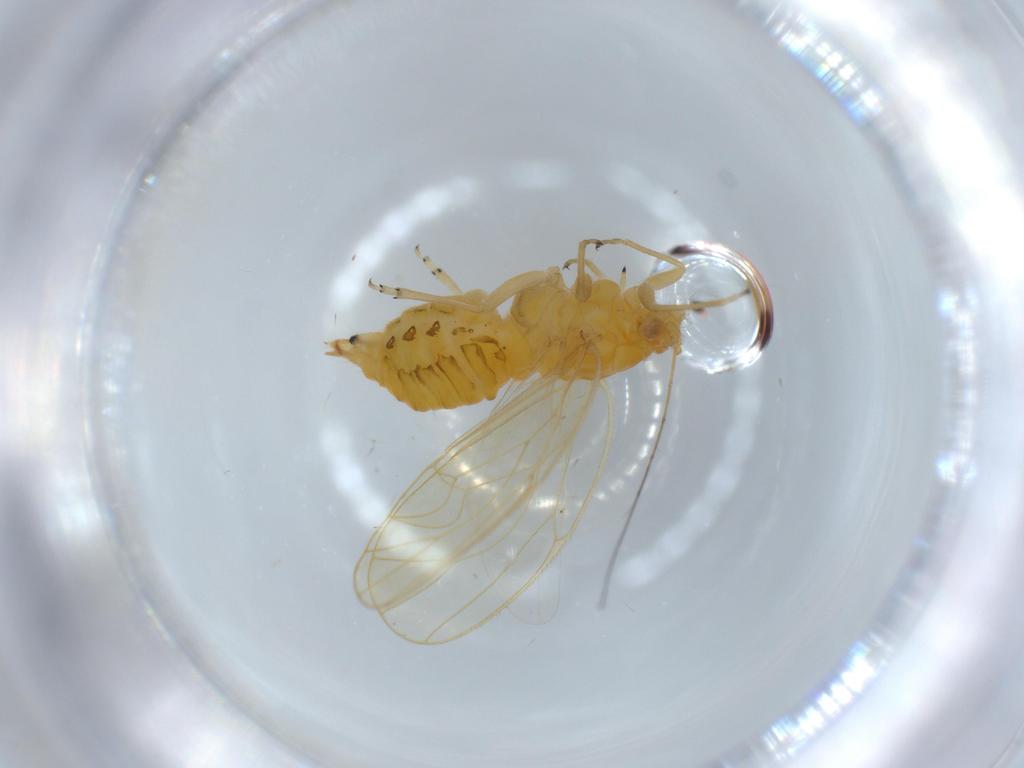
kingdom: Animalia
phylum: Arthropoda
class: Insecta
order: Hemiptera
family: Psyllidae
